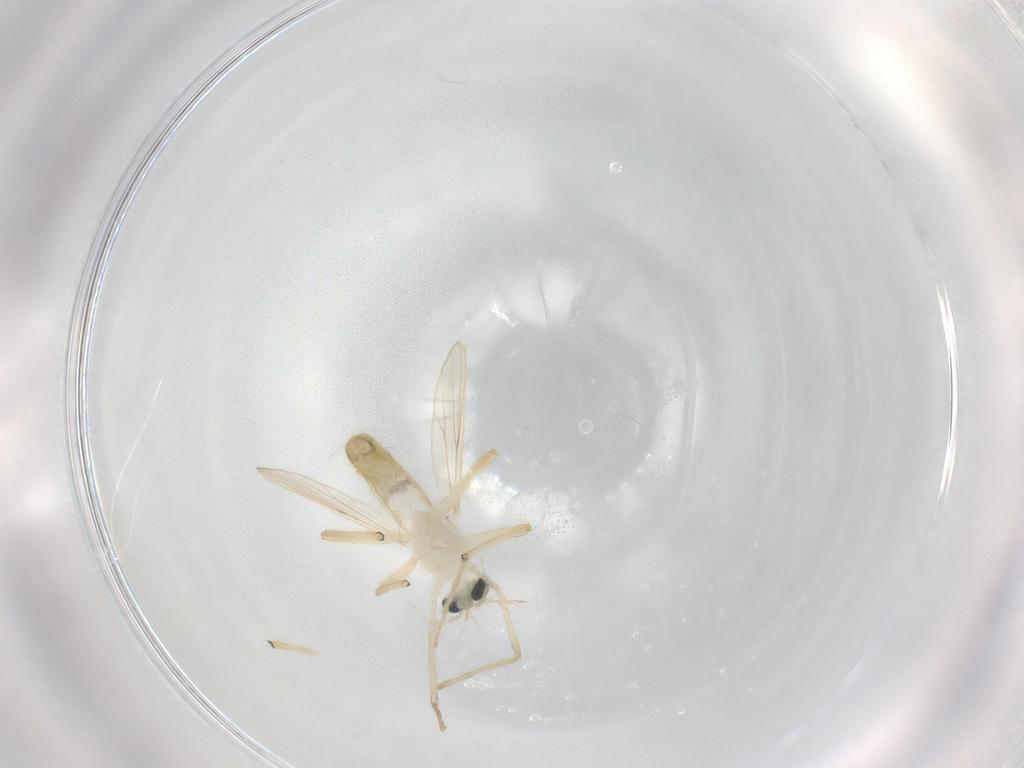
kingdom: Animalia
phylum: Arthropoda
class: Insecta
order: Diptera
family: Chironomidae
